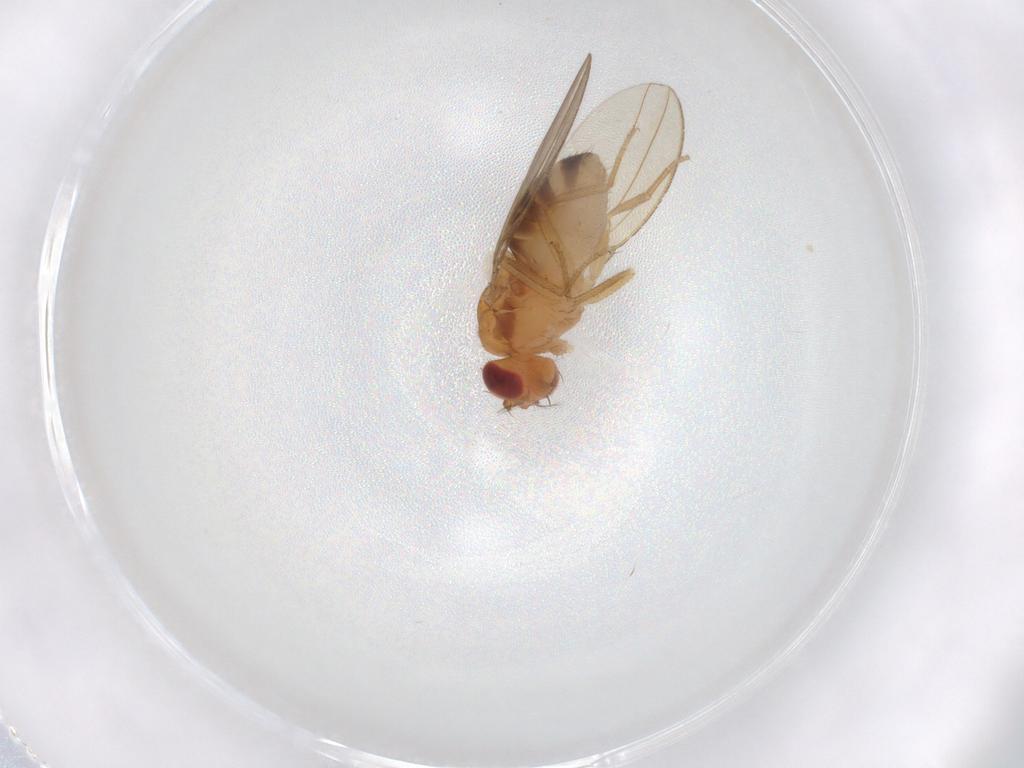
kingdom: Animalia
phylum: Arthropoda
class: Insecta
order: Diptera
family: Drosophilidae
